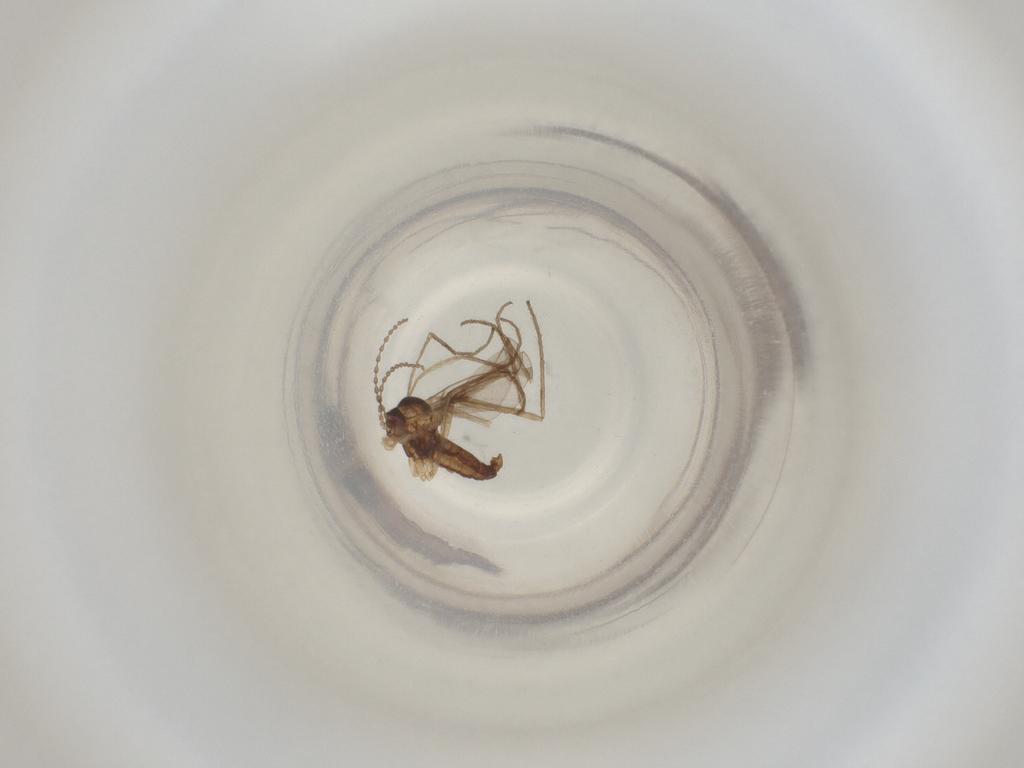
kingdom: Animalia
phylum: Arthropoda
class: Insecta
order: Diptera
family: Cecidomyiidae
